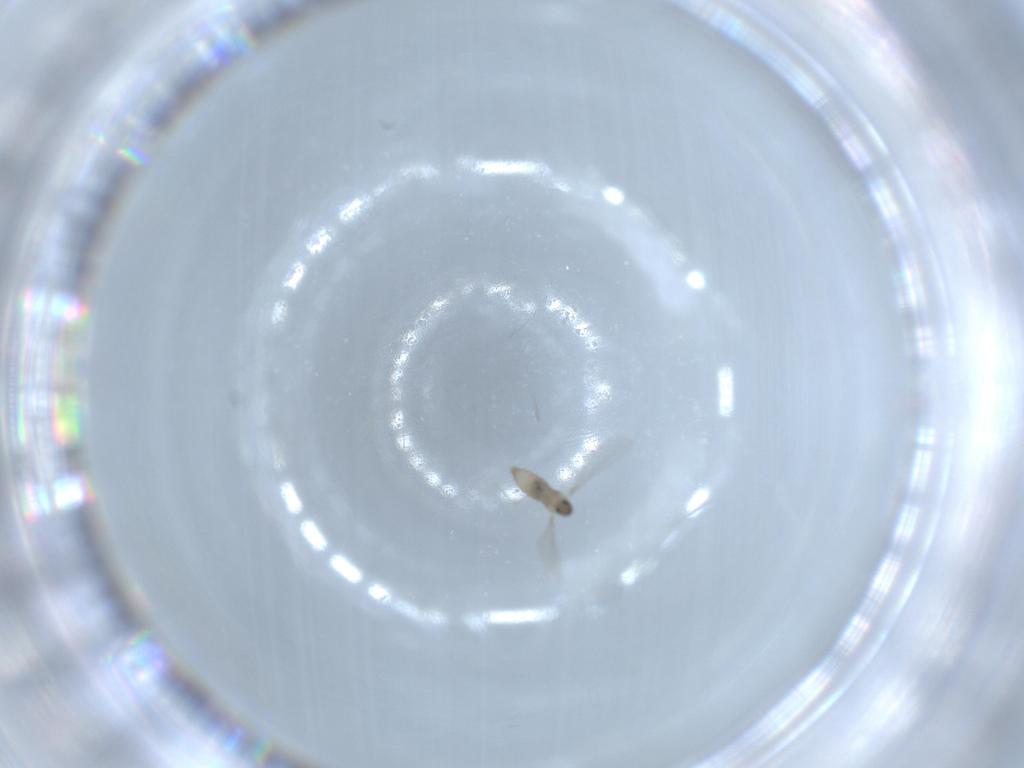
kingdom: Animalia
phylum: Arthropoda
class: Insecta
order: Diptera
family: Cecidomyiidae
